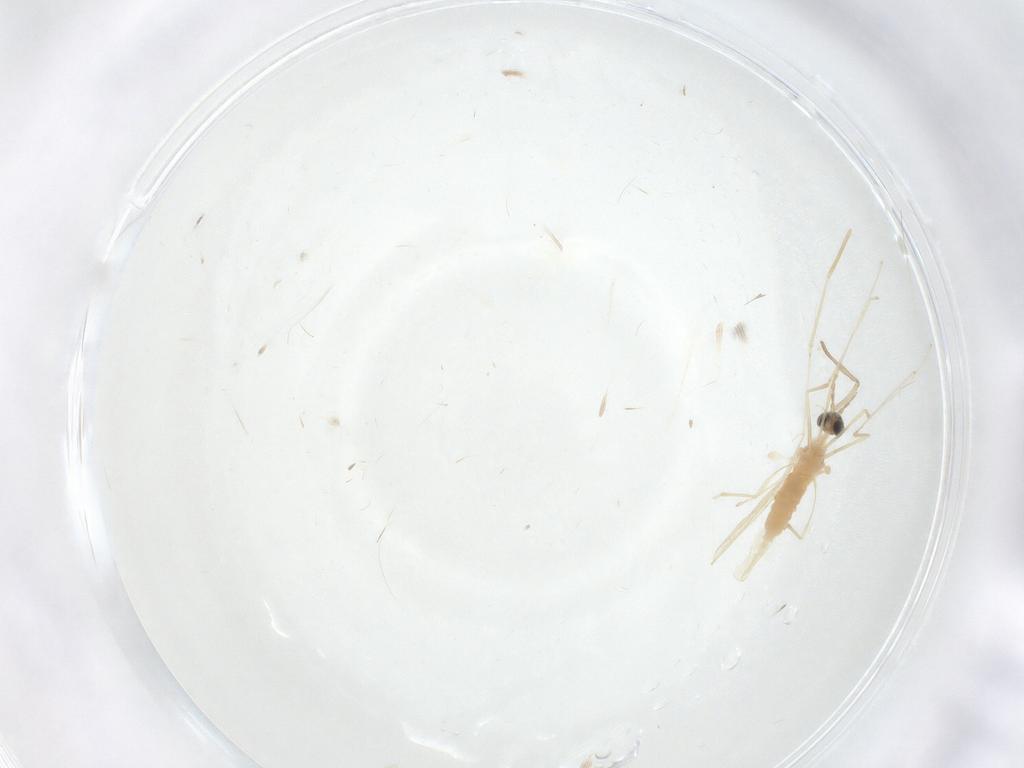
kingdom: Animalia
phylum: Arthropoda
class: Insecta
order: Diptera
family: Cecidomyiidae
